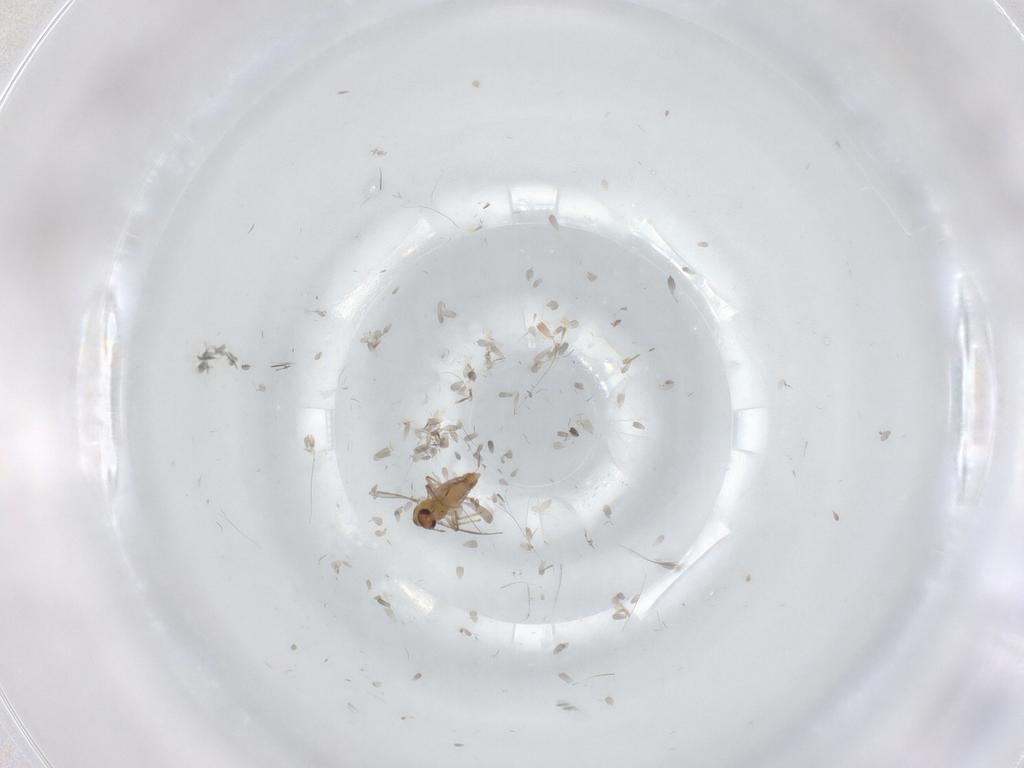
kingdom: Animalia
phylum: Arthropoda
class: Insecta
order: Diptera
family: Chironomidae
